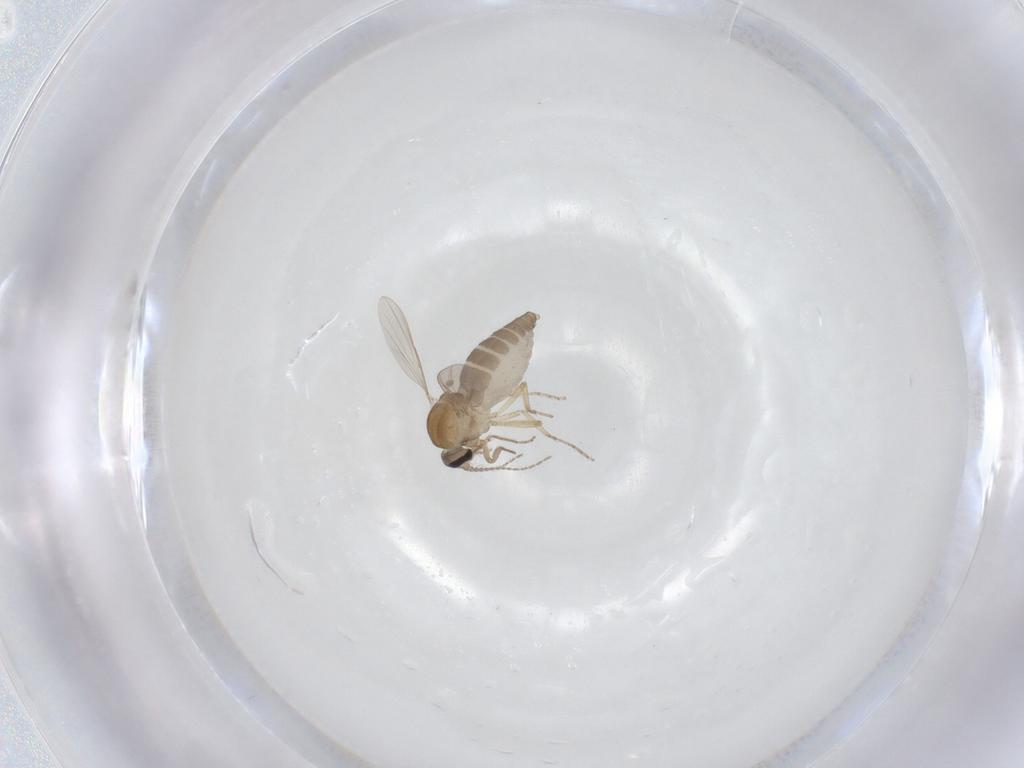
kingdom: Animalia
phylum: Arthropoda
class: Insecta
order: Diptera
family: Ceratopogonidae
